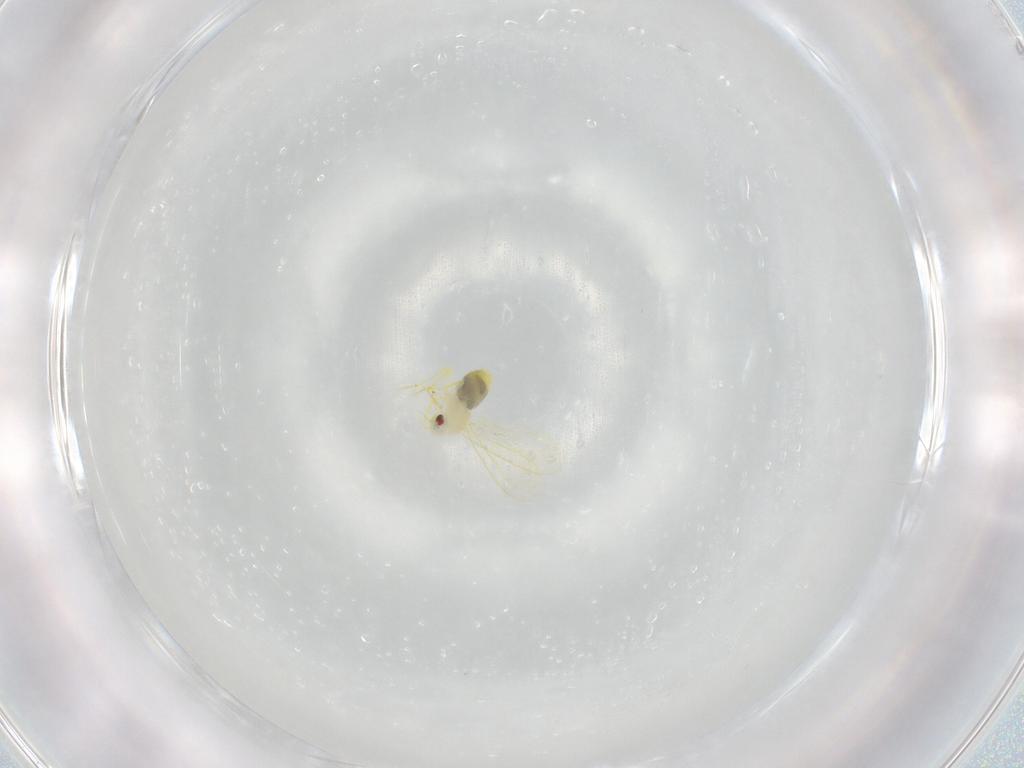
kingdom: Animalia
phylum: Arthropoda
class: Insecta
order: Hemiptera
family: Aleyrodidae
